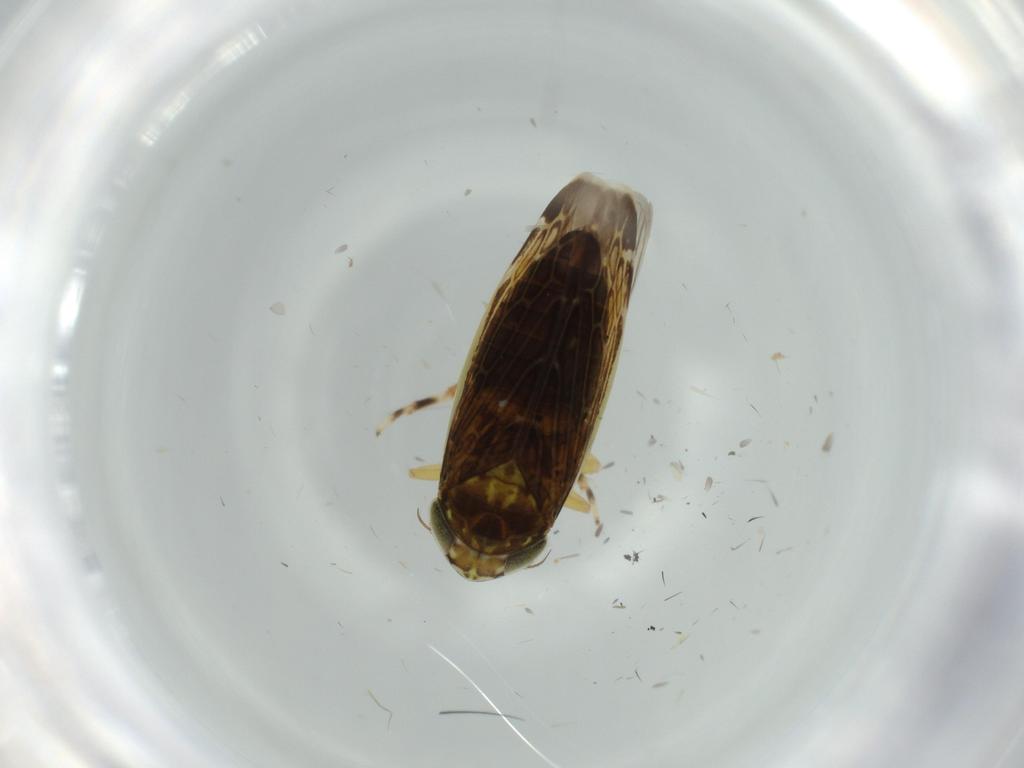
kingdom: Animalia
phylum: Arthropoda
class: Insecta
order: Hemiptera
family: Cicadellidae
